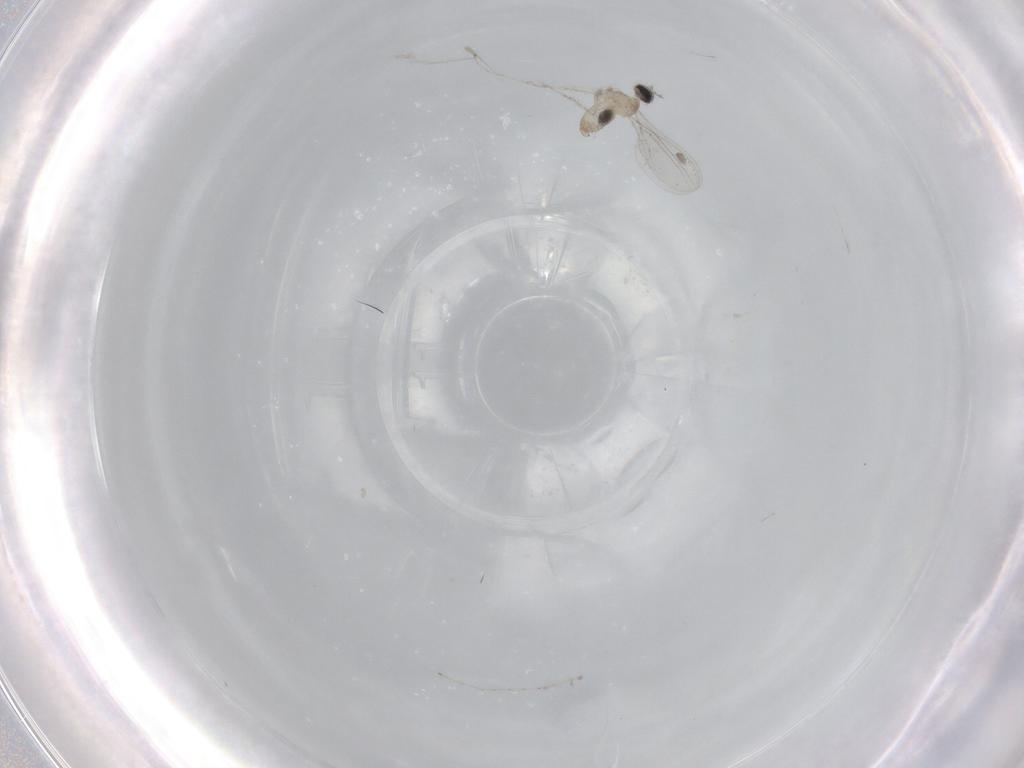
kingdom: Animalia
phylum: Arthropoda
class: Insecta
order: Diptera
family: Cecidomyiidae
